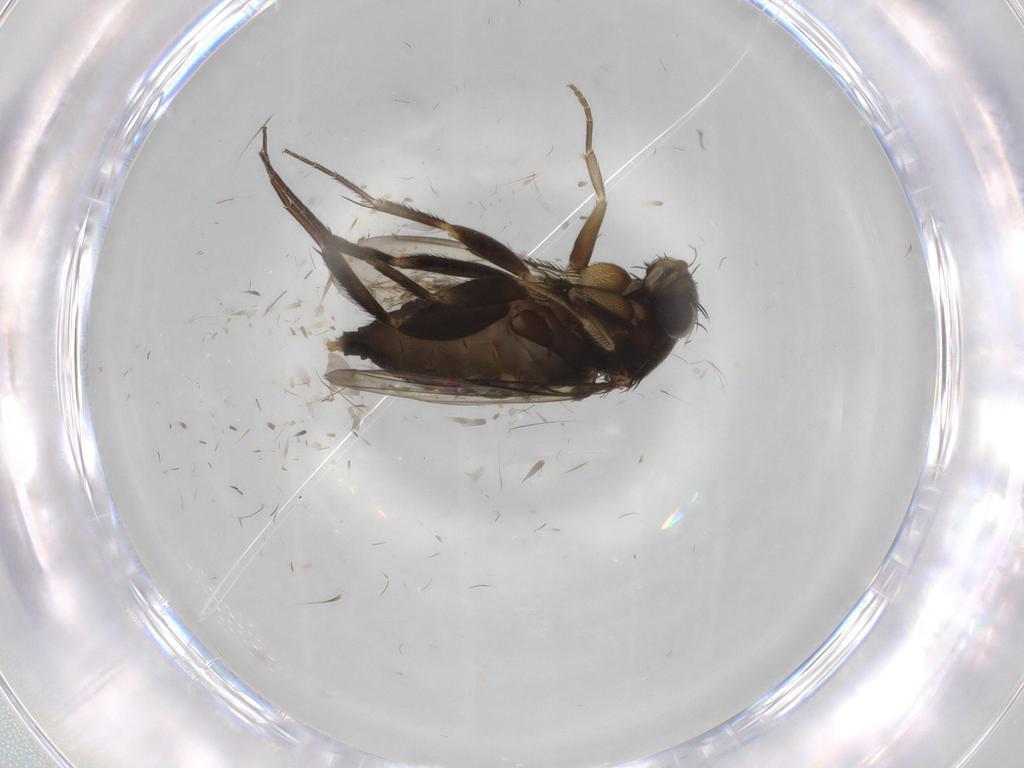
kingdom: Animalia
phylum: Arthropoda
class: Insecta
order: Diptera
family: Phoridae
